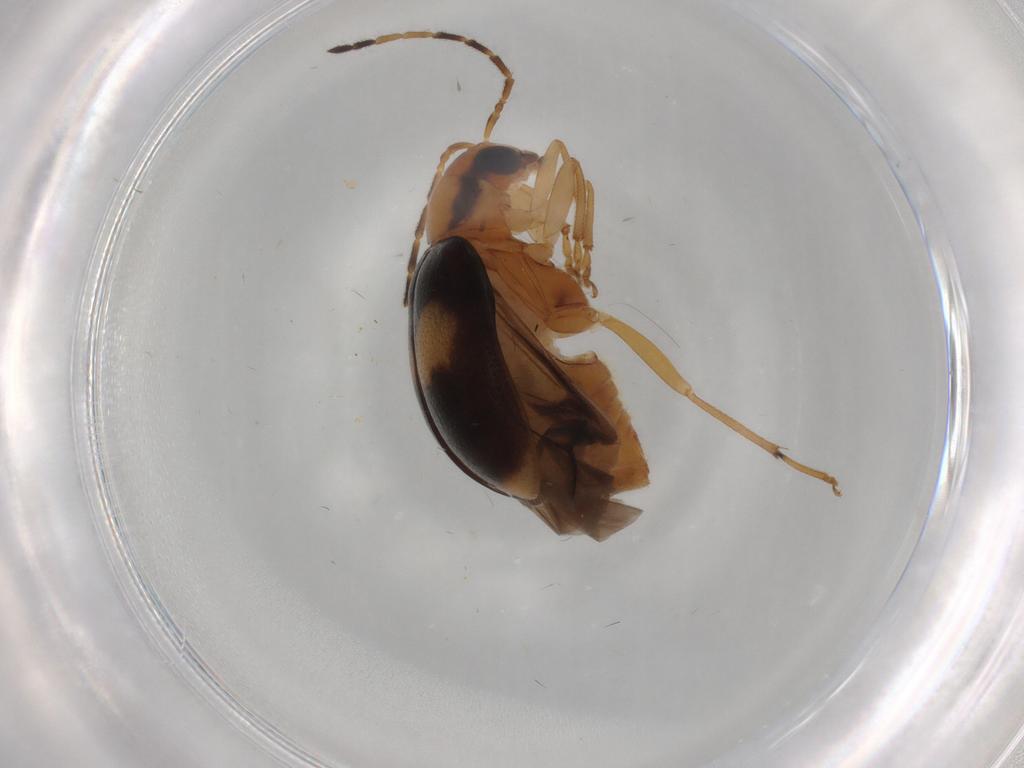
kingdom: Animalia
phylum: Arthropoda
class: Insecta
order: Coleoptera
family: Chrysomelidae
